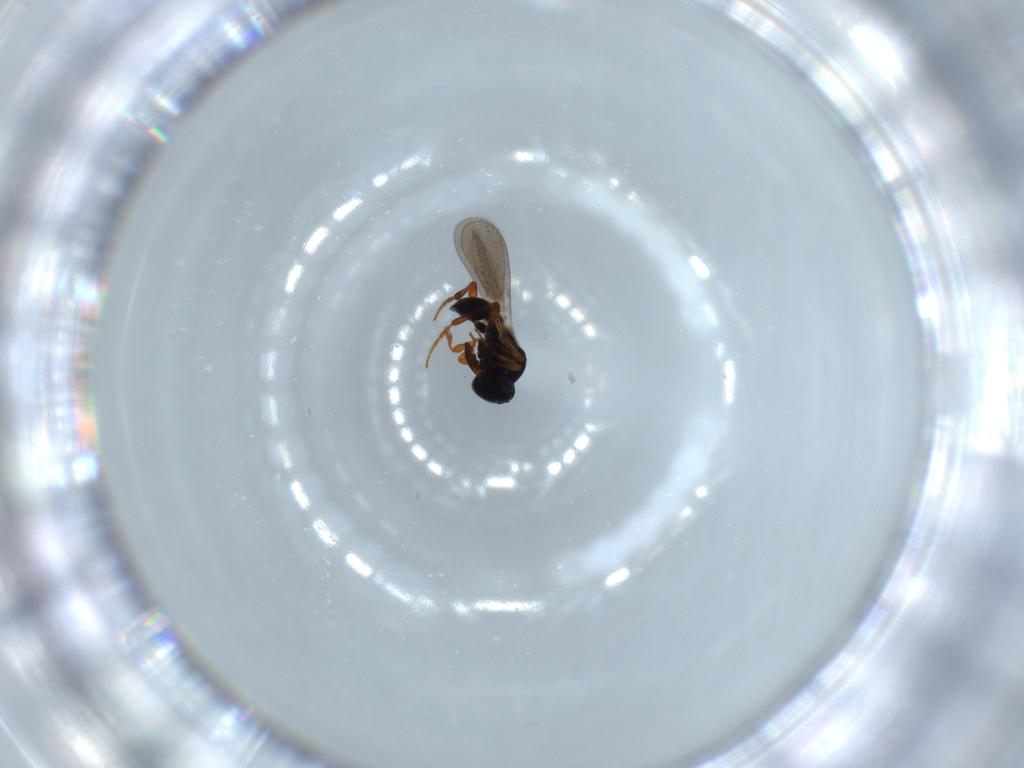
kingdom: Animalia
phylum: Arthropoda
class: Insecta
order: Hymenoptera
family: Platygastridae
